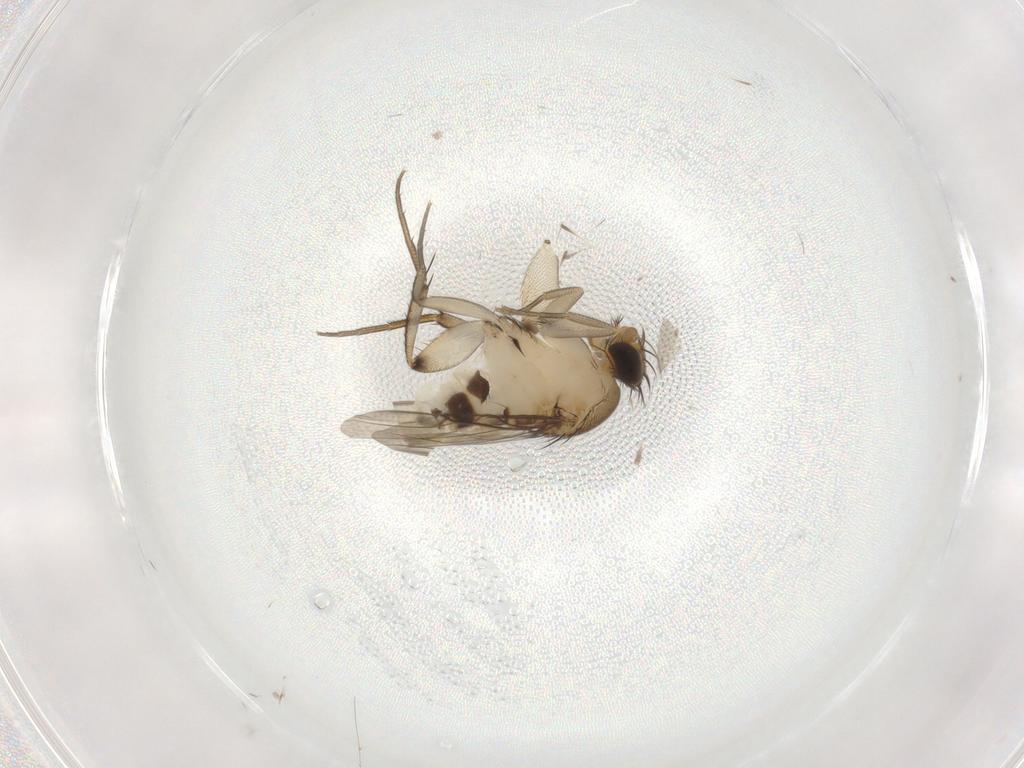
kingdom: Animalia
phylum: Arthropoda
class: Insecta
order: Diptera
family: Phoridae
